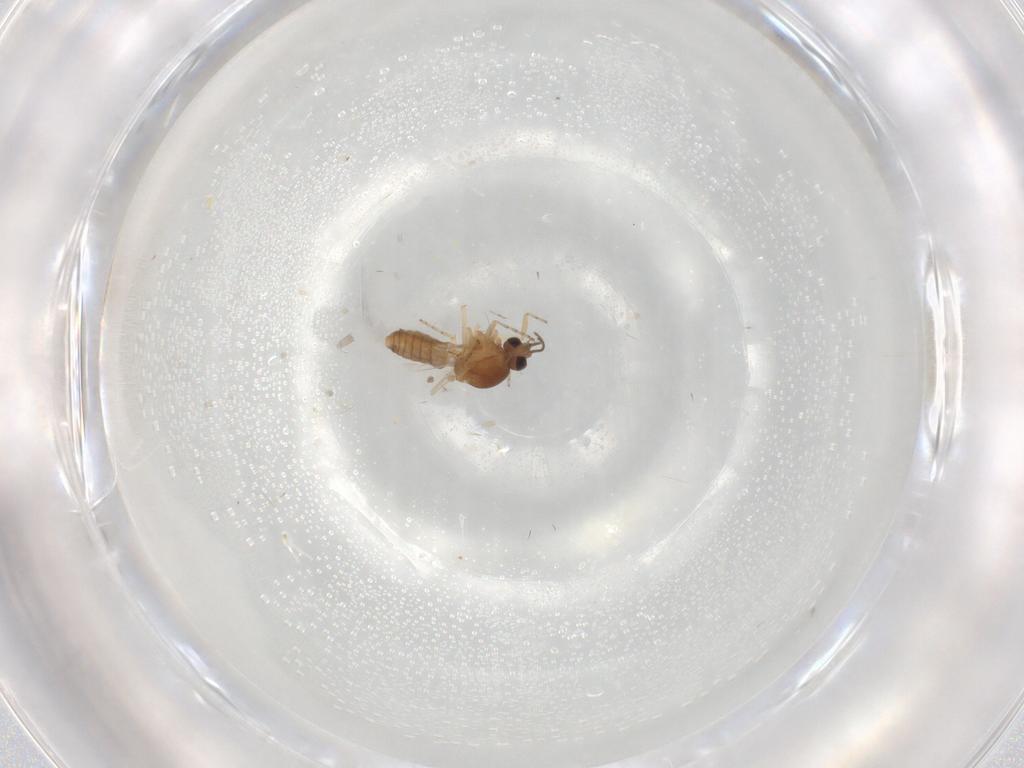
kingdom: Animalia
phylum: Arthropoda
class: Insecta
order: Diptera
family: Ceratopogonidae
